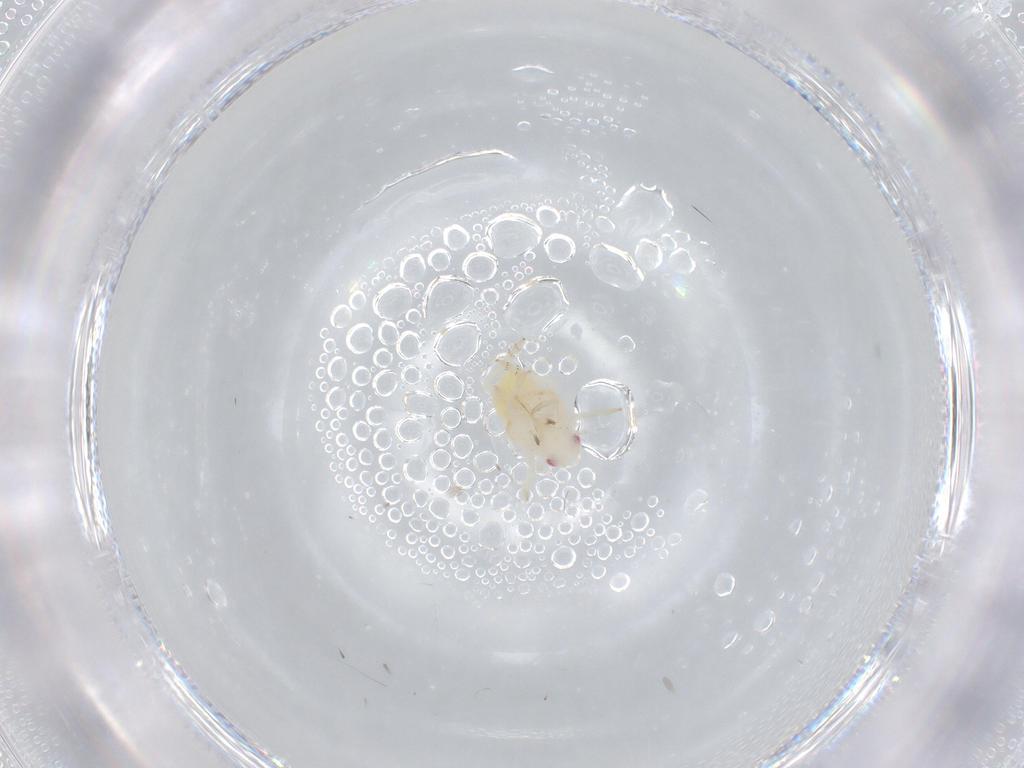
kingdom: Animalia
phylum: Arthropoda
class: Insecta
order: Hemiptera
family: Flatidae
